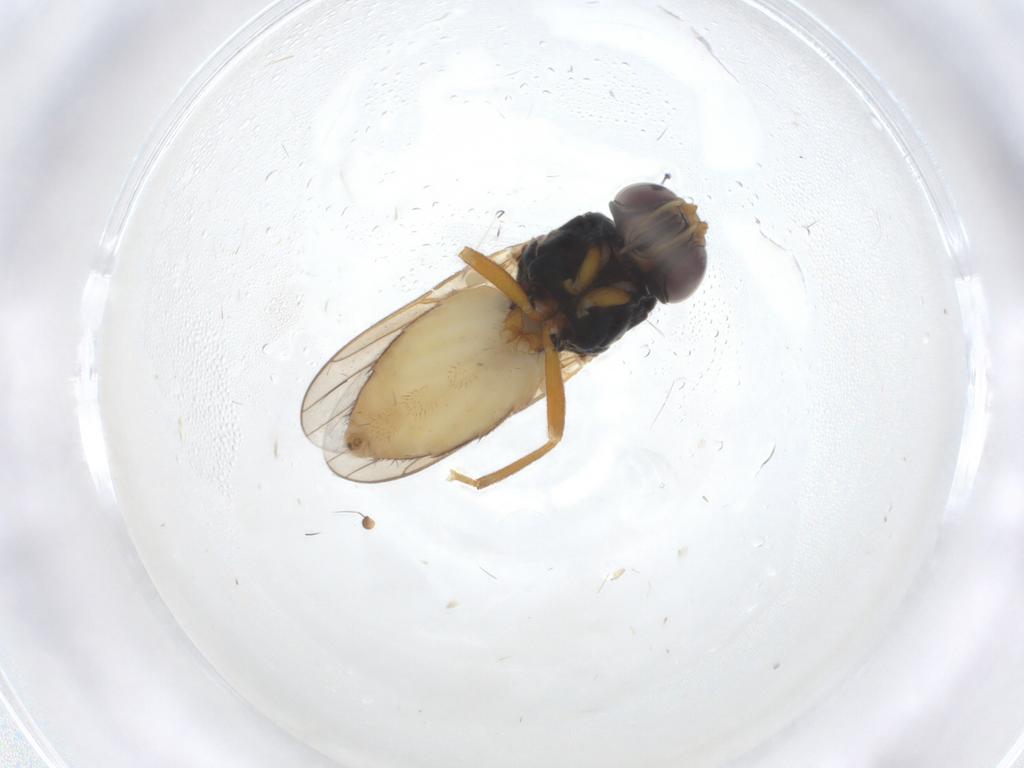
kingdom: Animalia
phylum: Arthropoda
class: Insecta
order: Diptera
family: Chloropidae
